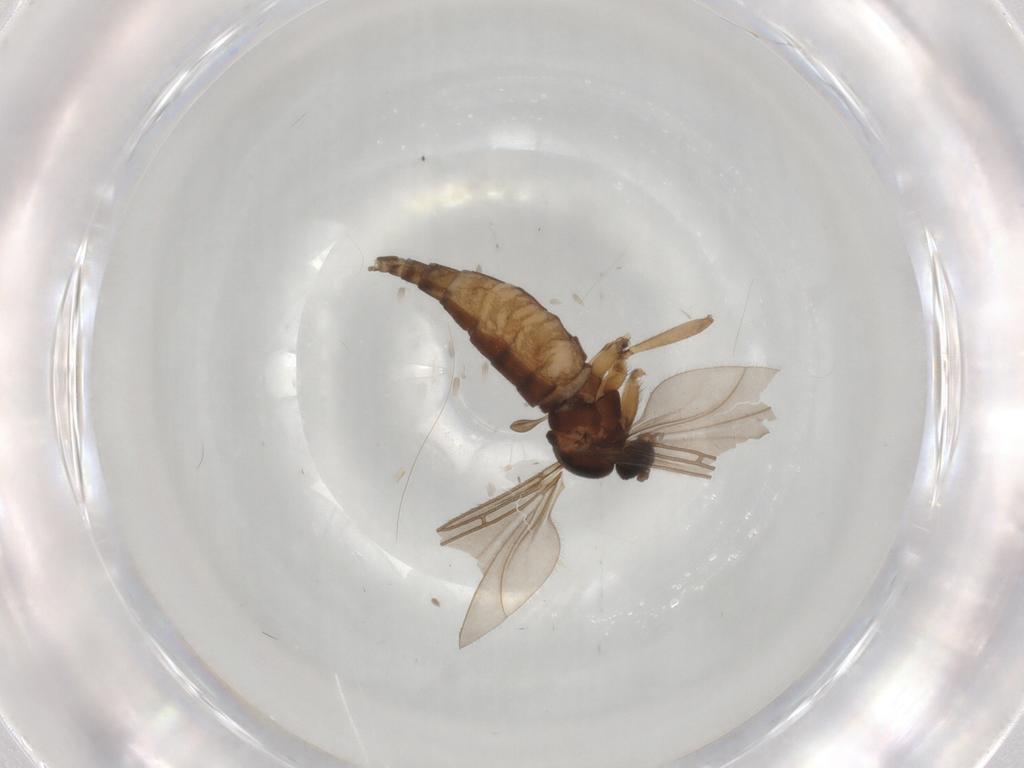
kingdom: Animalia
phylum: Arthropoda
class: Insecta
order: Diptera
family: Sciaridae
